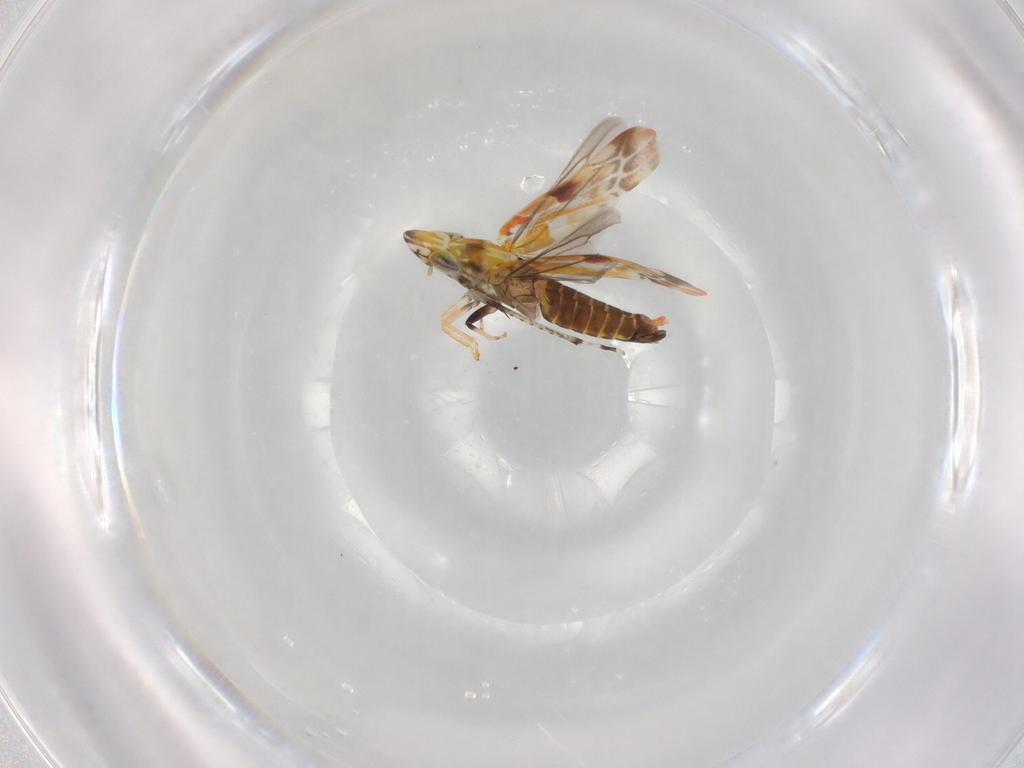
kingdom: Animalia
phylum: Arthropoda
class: Insecta
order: Hemiptera
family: Cicadellidae
